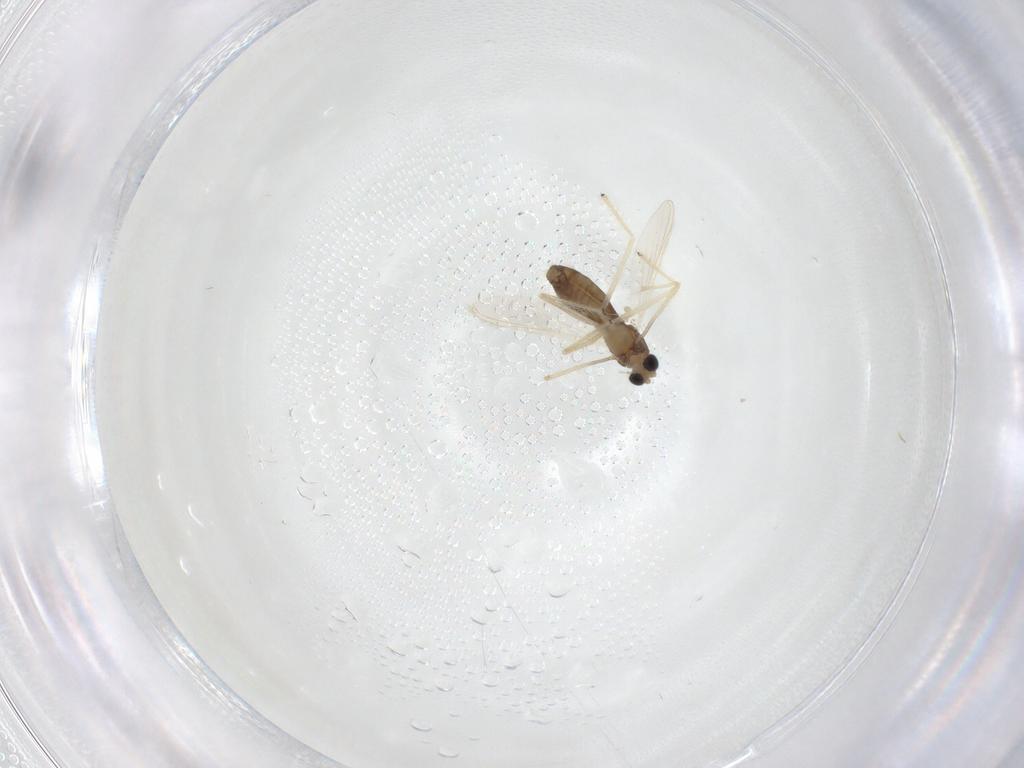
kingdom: Animalia
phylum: Arthropoda
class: Insecta
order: Diptera
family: Chironomidae
